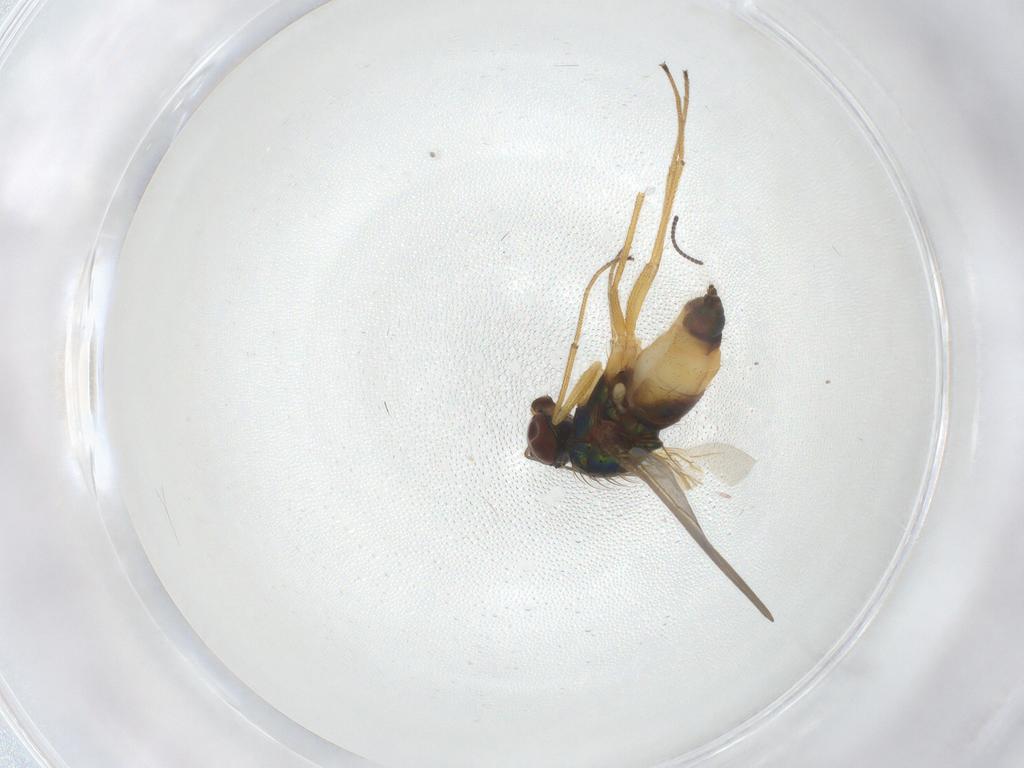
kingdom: Animalia
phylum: Arthropoda
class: Insecta
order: Diptera
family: Dolichopodidae
